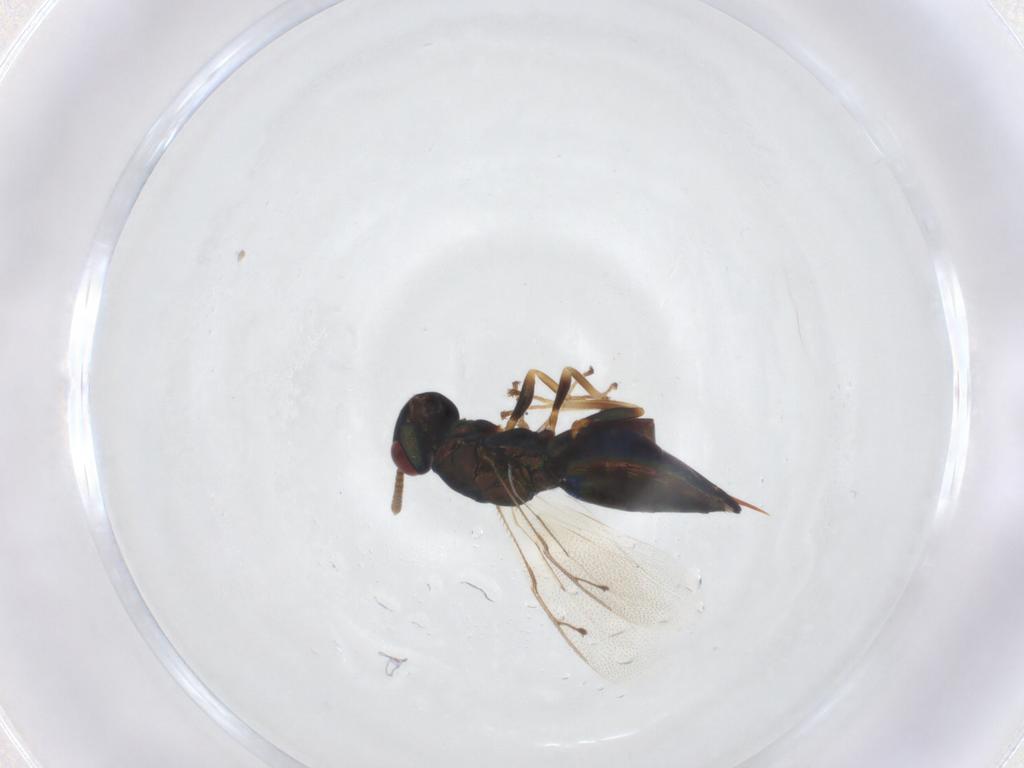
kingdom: Animalia
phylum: Arthropoda
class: Insecta
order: Hymenoptera
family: Pteromalidae
